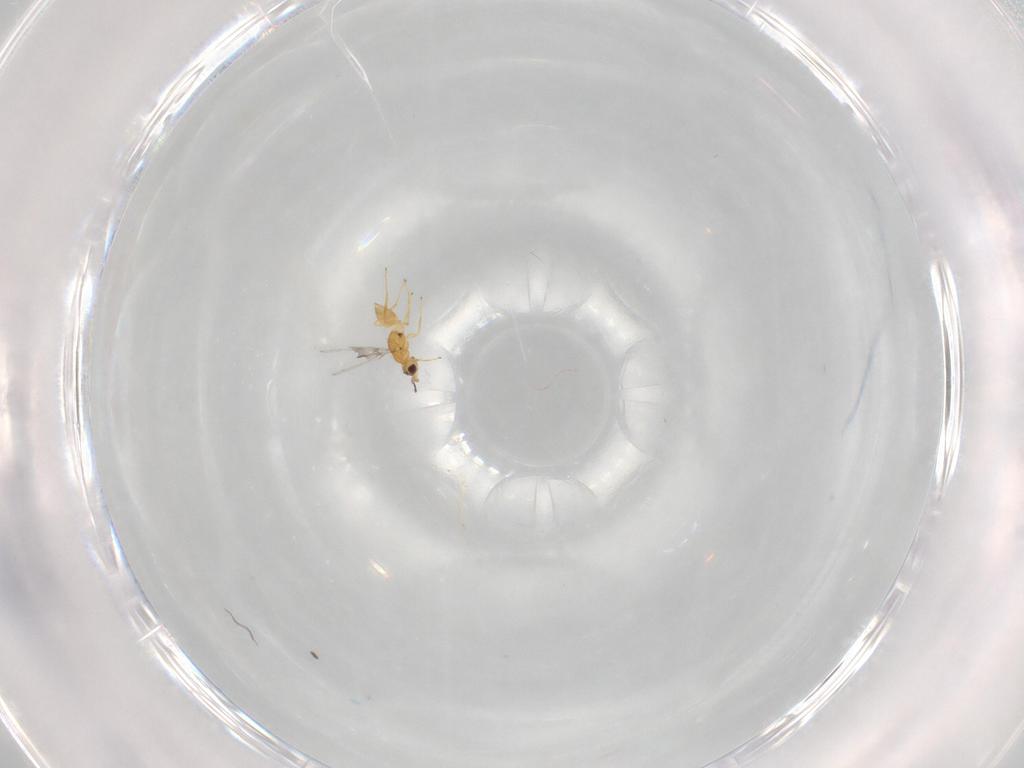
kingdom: Animalia
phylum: Arthropoda
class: Insecta
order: Hymenoptera
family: Mymaridae
